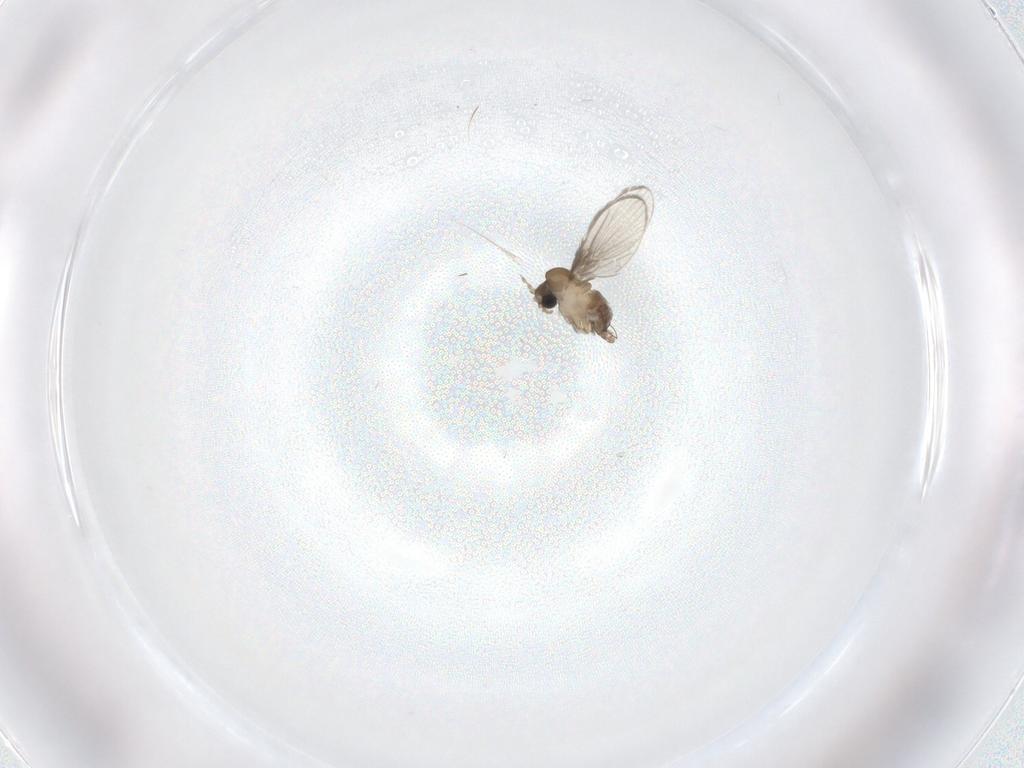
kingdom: Animalia
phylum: Arthropoda
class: Insecta
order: Diptera
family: Psychodidae
